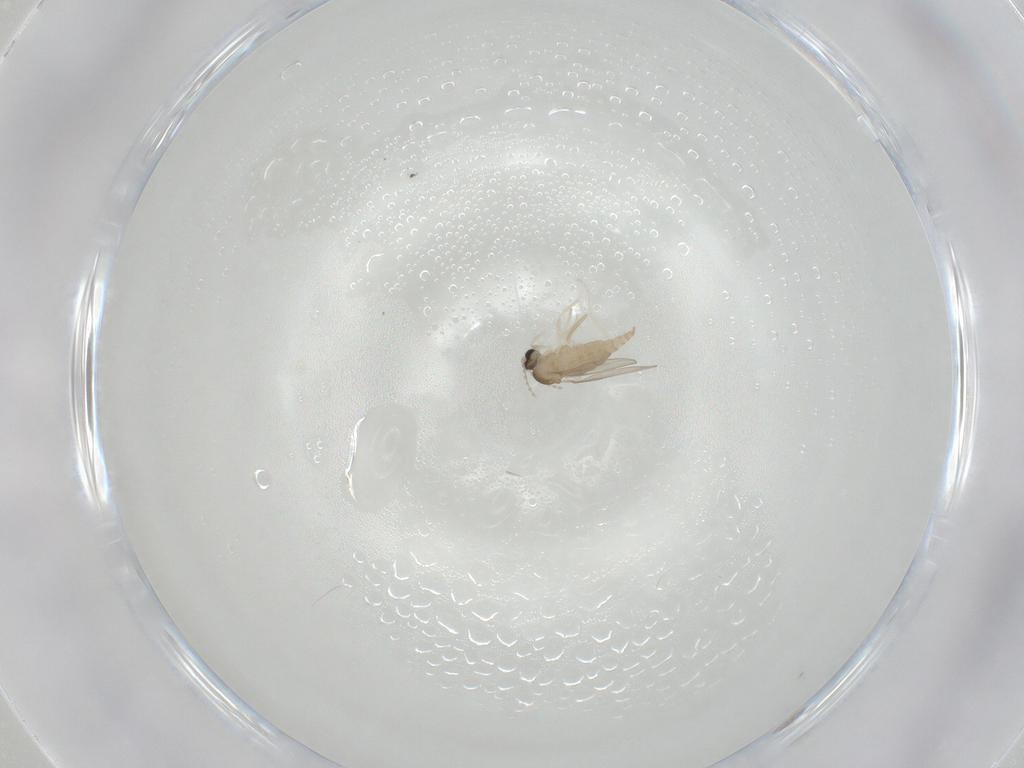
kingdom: Animalia
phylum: Arthropoda
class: Insecta
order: Diptera
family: Cecidomyiidae
